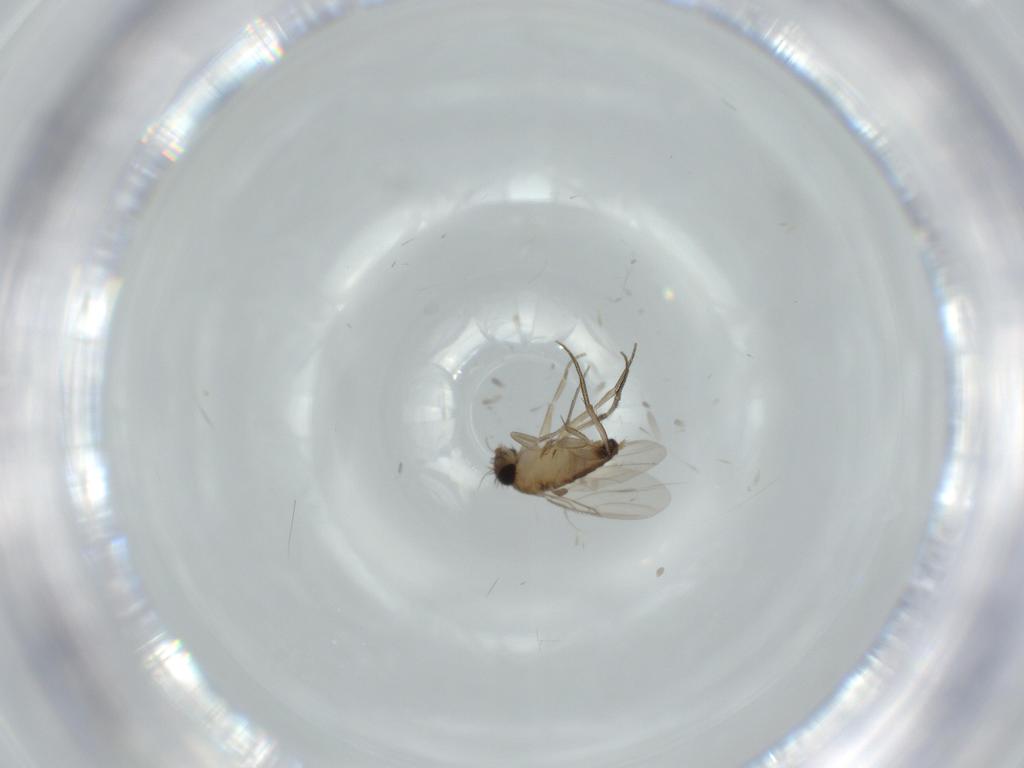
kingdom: Animalia
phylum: Arthropoda
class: Insecta
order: Diptera
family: Phoridae
